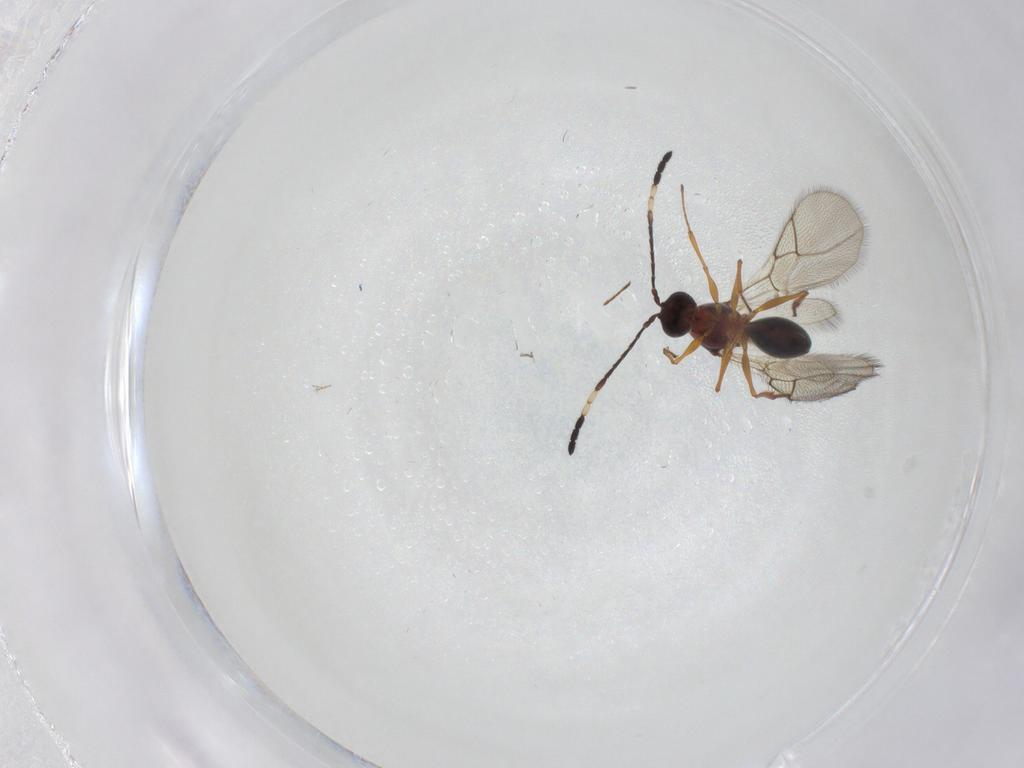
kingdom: Animalia
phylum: Arthropoda
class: Insecta
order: Hymenoptera
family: Figitidae
